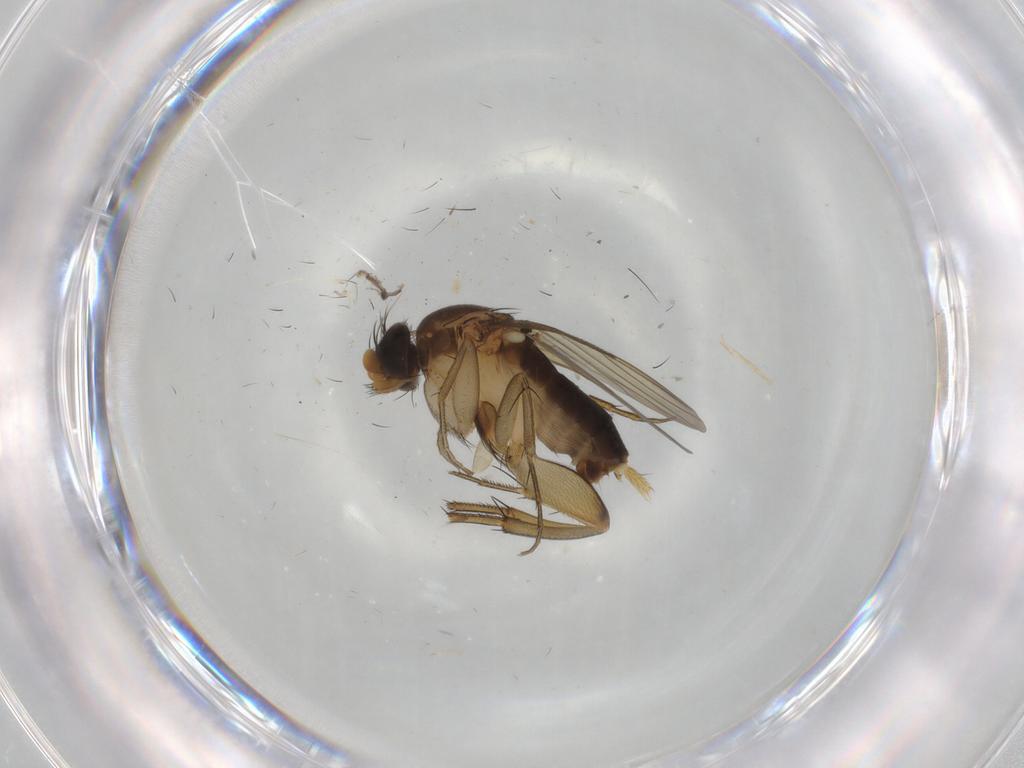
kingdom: Animalia
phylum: Arthropoda
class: Insecta
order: Diptera
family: Phoridae
